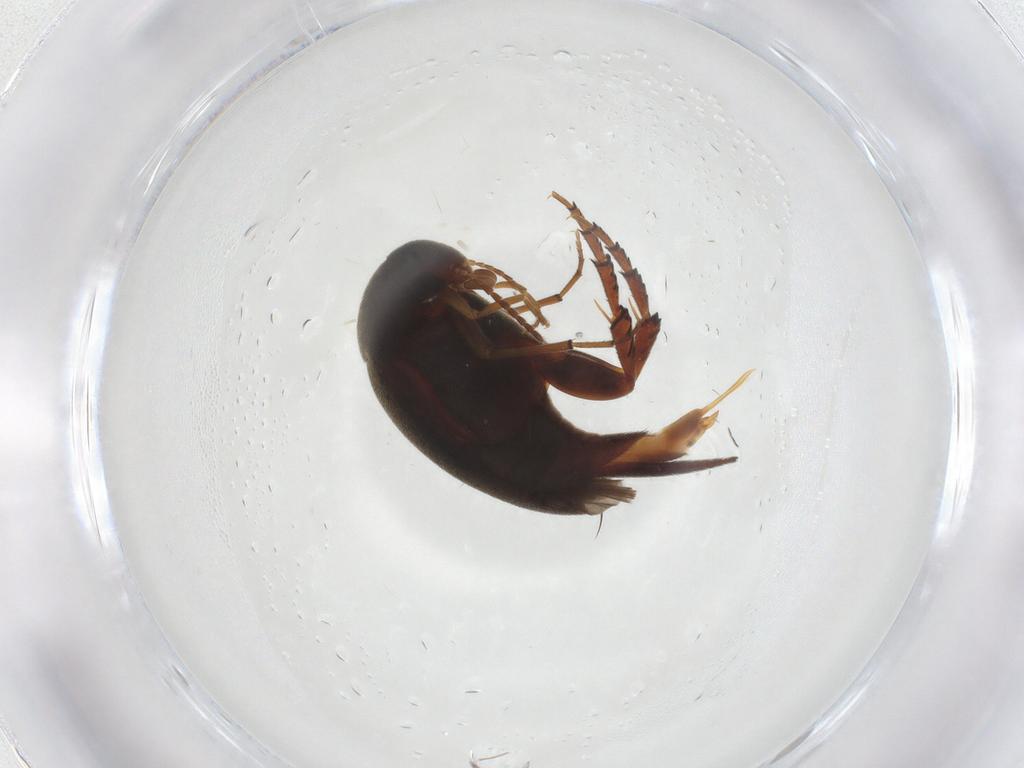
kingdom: Animalia
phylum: Arthropoda
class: Insecta
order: Coleoptera
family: Mordellidae
